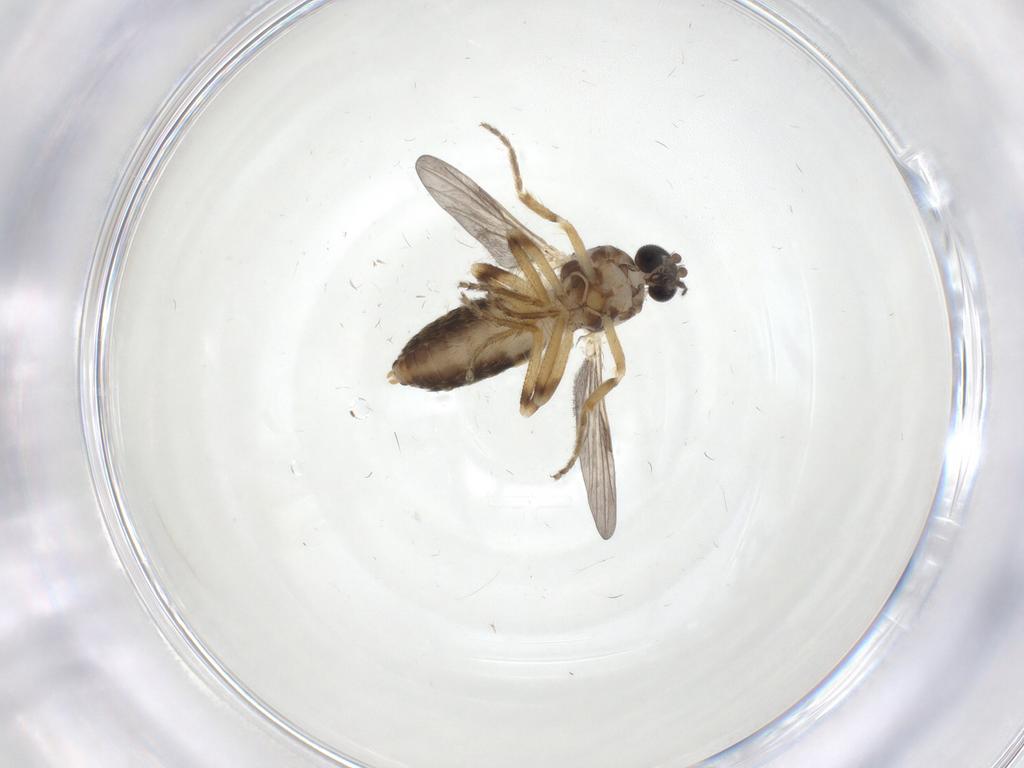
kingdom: Animalia
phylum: Arthropoda
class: Insecta
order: Diptera
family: Ceratopogonidae
